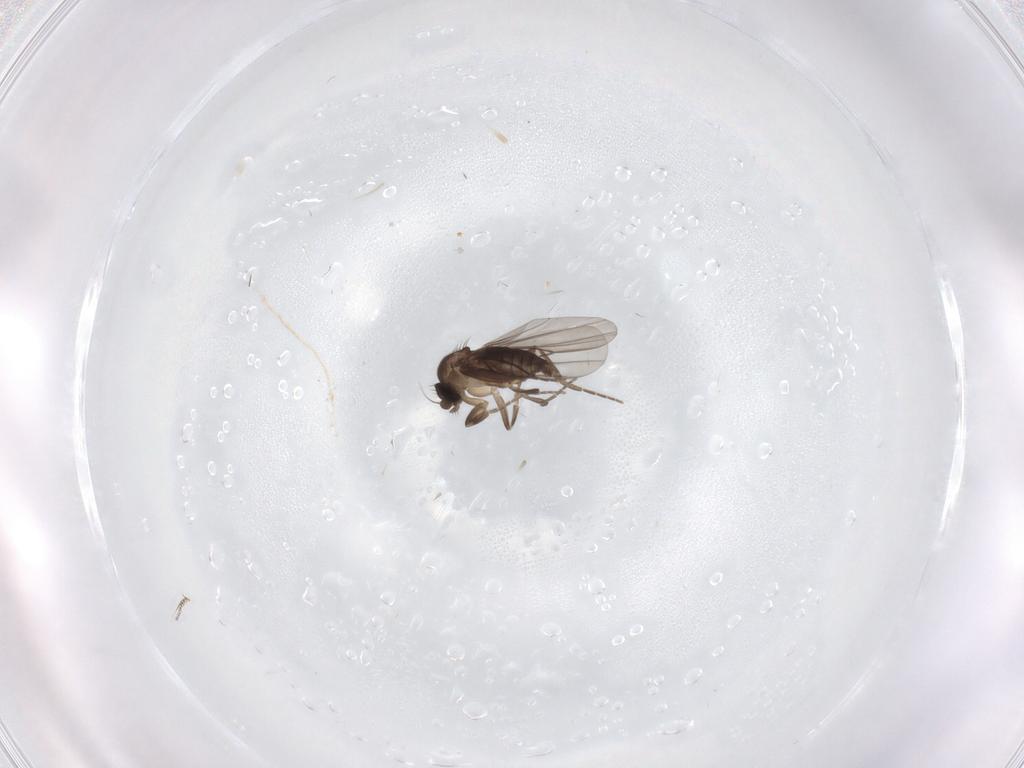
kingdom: Animalia
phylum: Arthropoda
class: Insecta
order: Diptera
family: Phoridae
